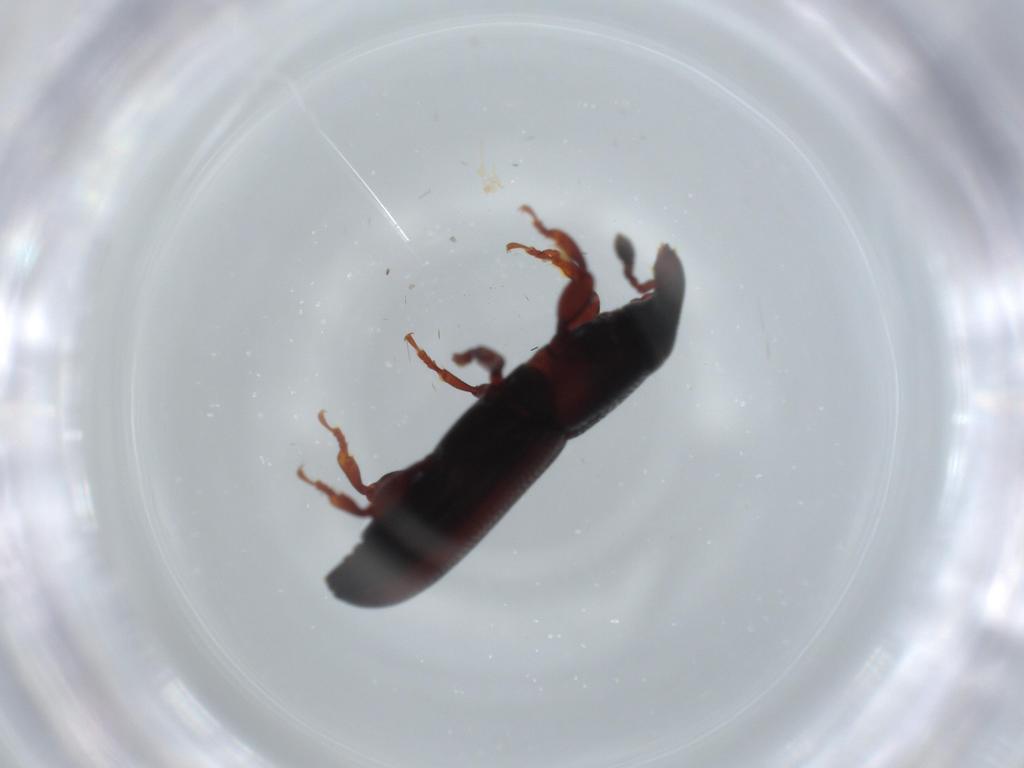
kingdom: Animalia
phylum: Arthropoda
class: Insecta
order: Coleoptera
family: Curculionidae
